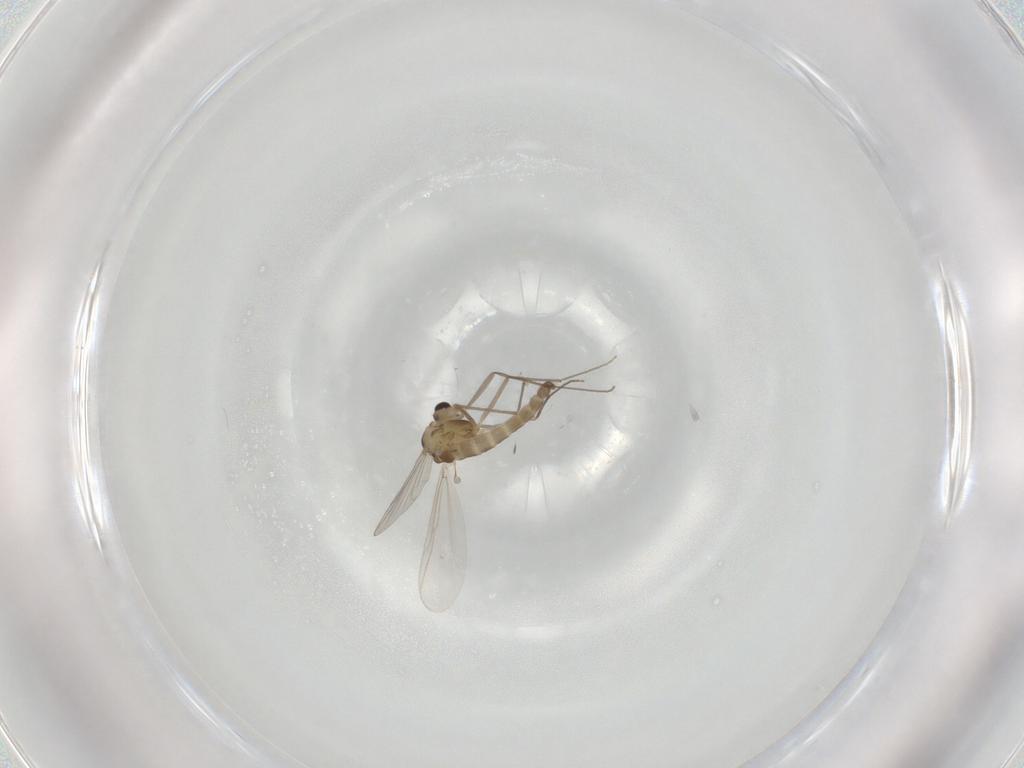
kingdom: Animalia
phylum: Arthropoda
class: Insecta
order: Diptera
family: Chironomidae
